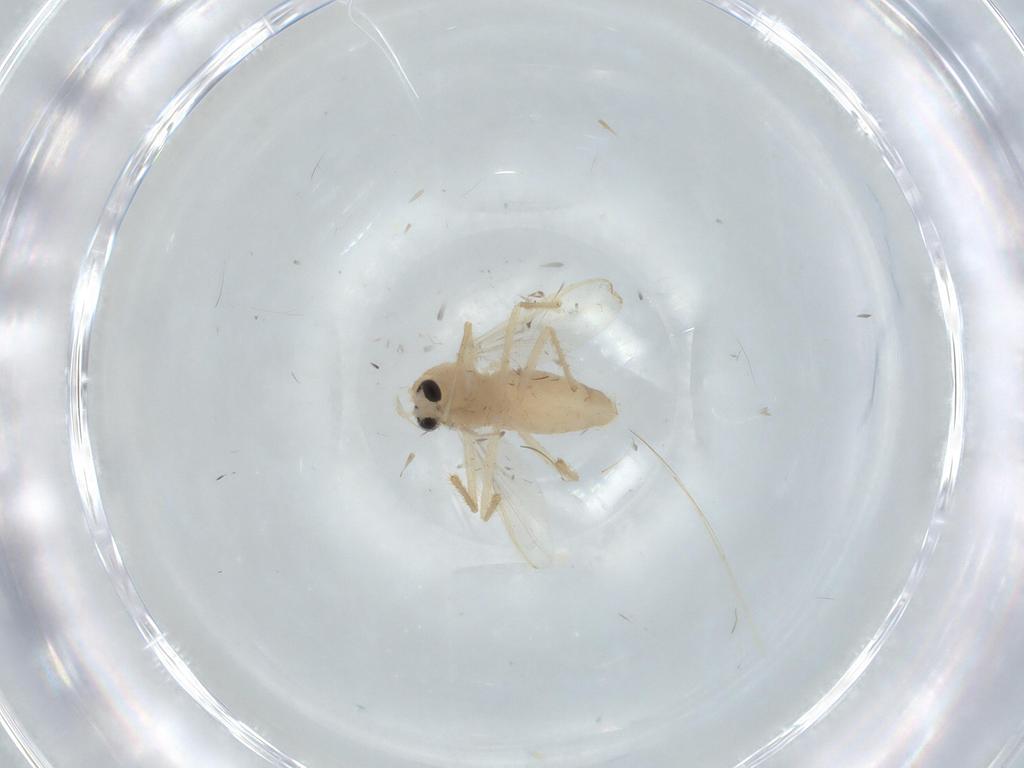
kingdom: Animalia
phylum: Arthropoda
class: Insecta
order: Diptera
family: Chironomidae
